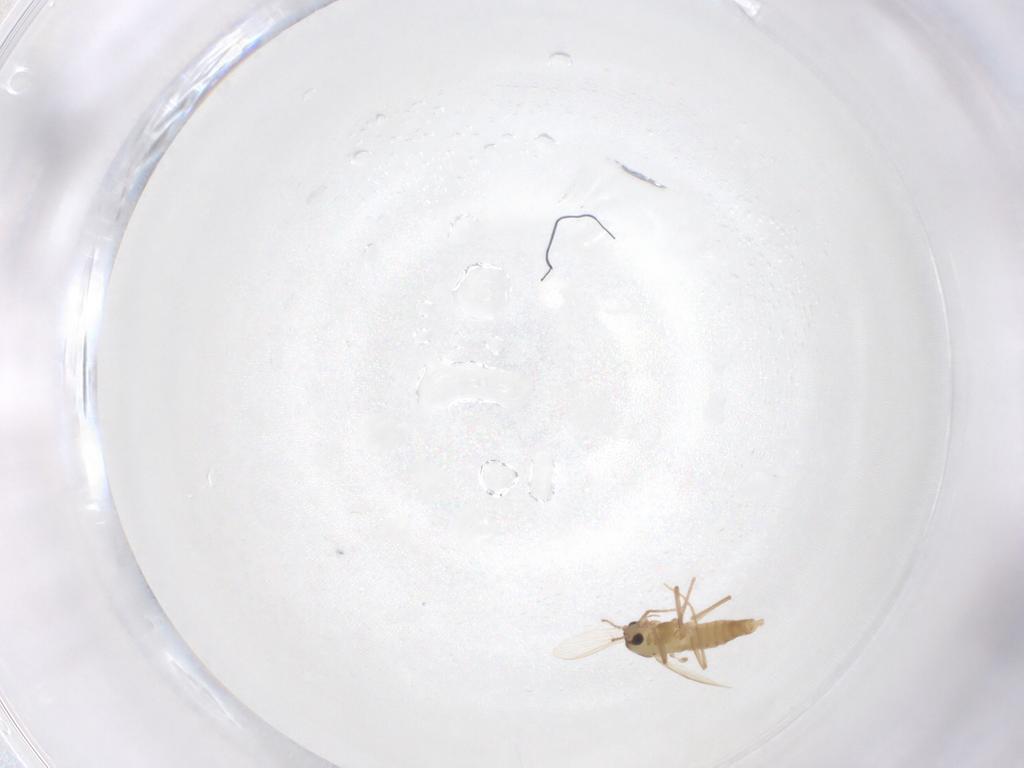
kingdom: Animalia
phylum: Arthropoda
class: Insecta
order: Diptera
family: Chironomidae
